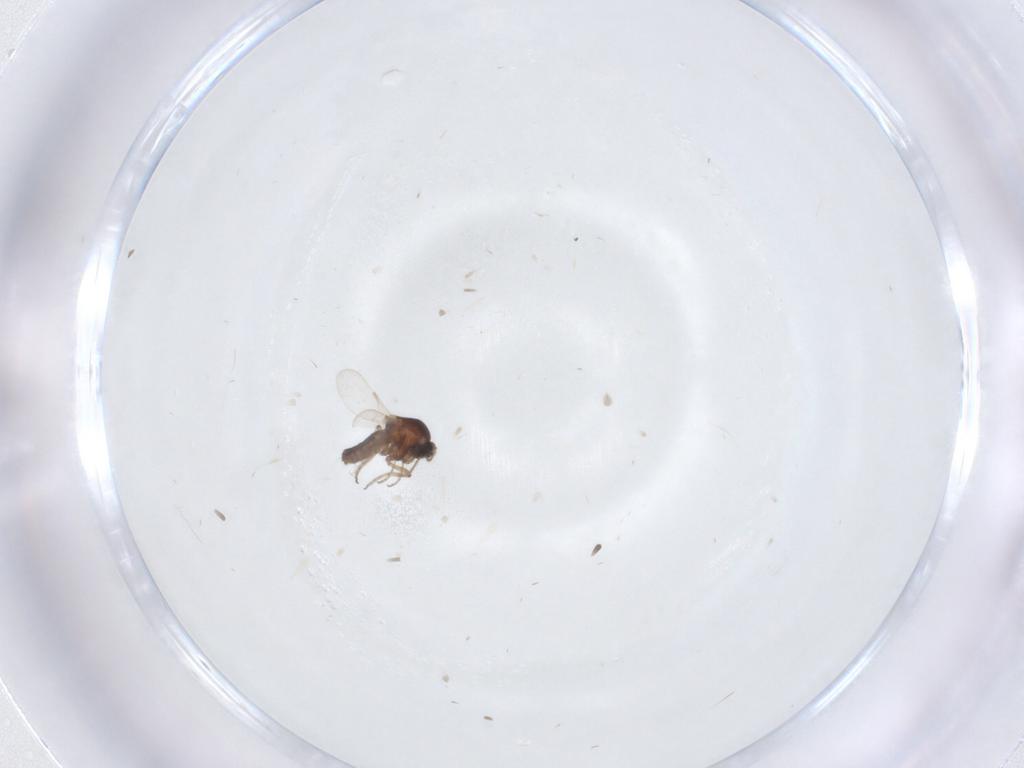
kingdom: Animalia
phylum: Arthropoda
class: Insecta
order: Diptera
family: Ceratopogonidae
